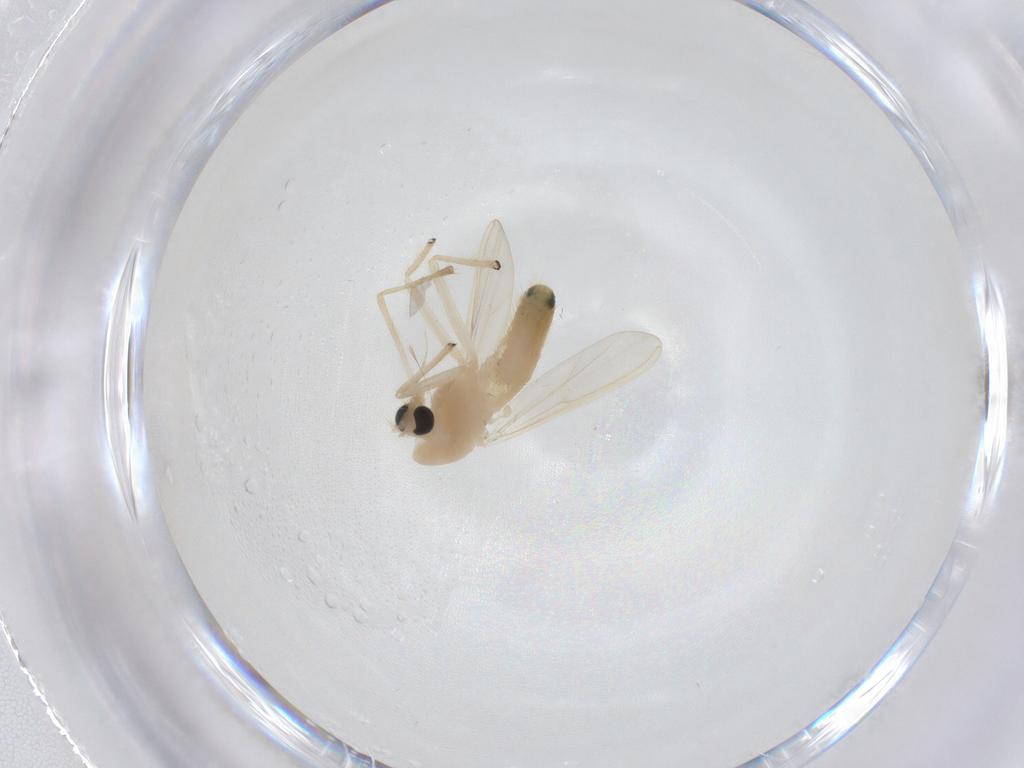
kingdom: Animalia
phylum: Arthropoda
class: Insecta
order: Diptera
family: Chironomidae
